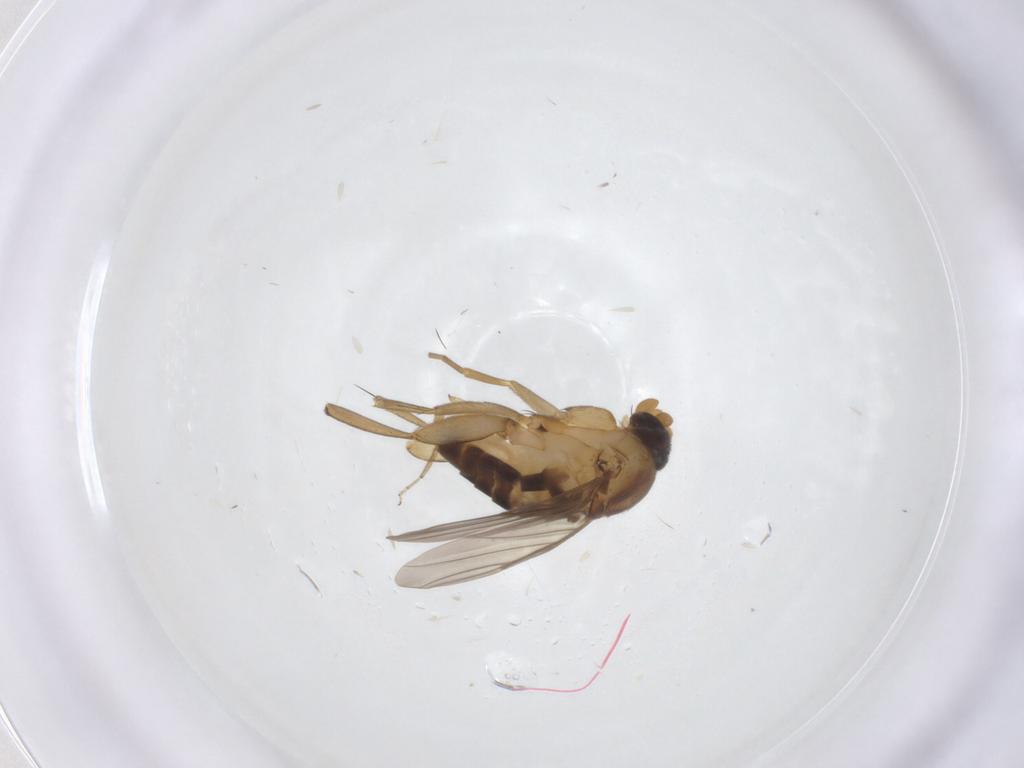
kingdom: Animalia
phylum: Arthropoda
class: Insecta
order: Diptera
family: Ceratopogonidae
